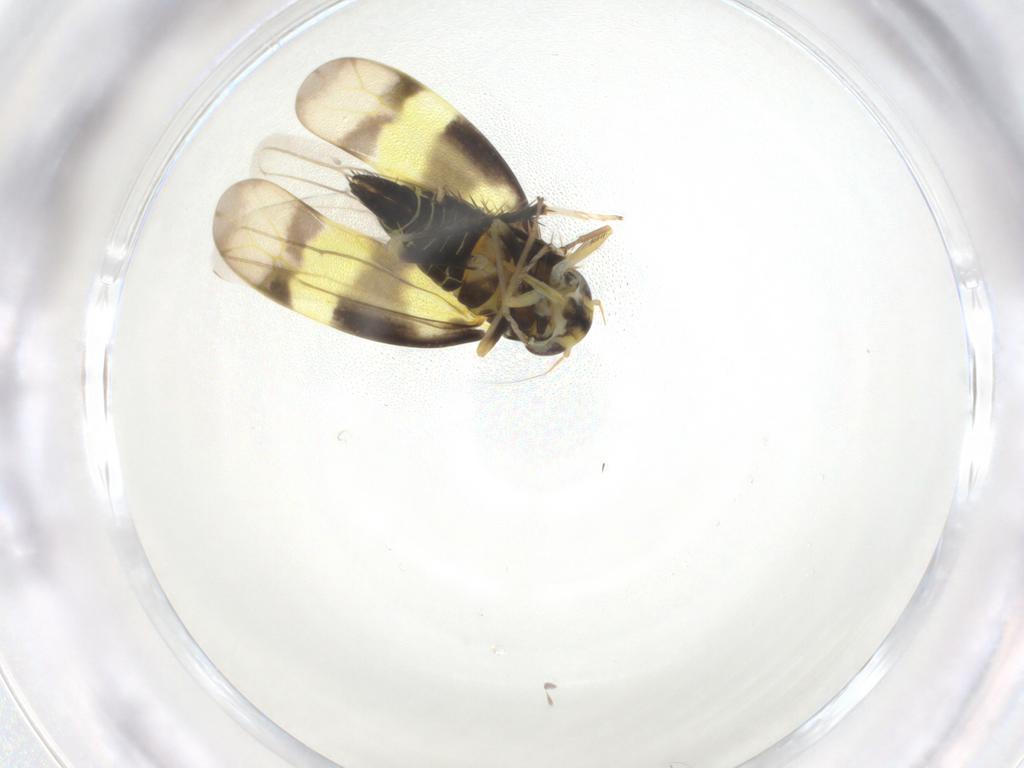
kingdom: Animalia
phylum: Arthropoda
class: Insecta
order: Hemiptera
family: Cicadellidae
